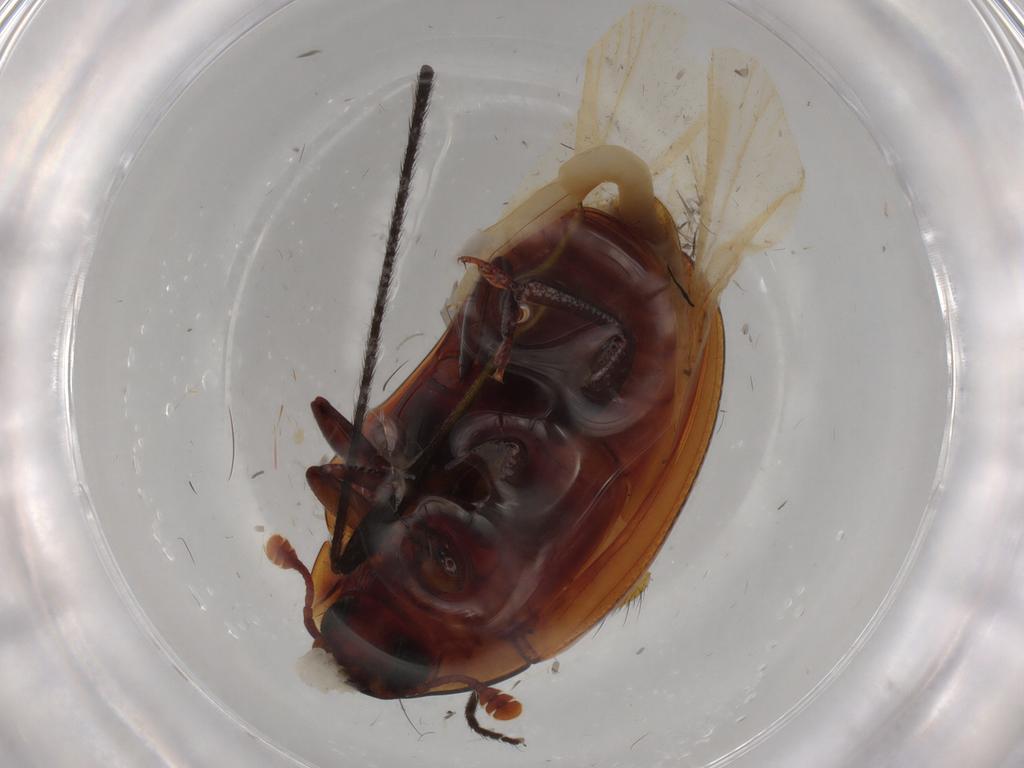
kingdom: Animalia
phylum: Arthropoda
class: Insecta
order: Coleoptera
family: Zopheridae
